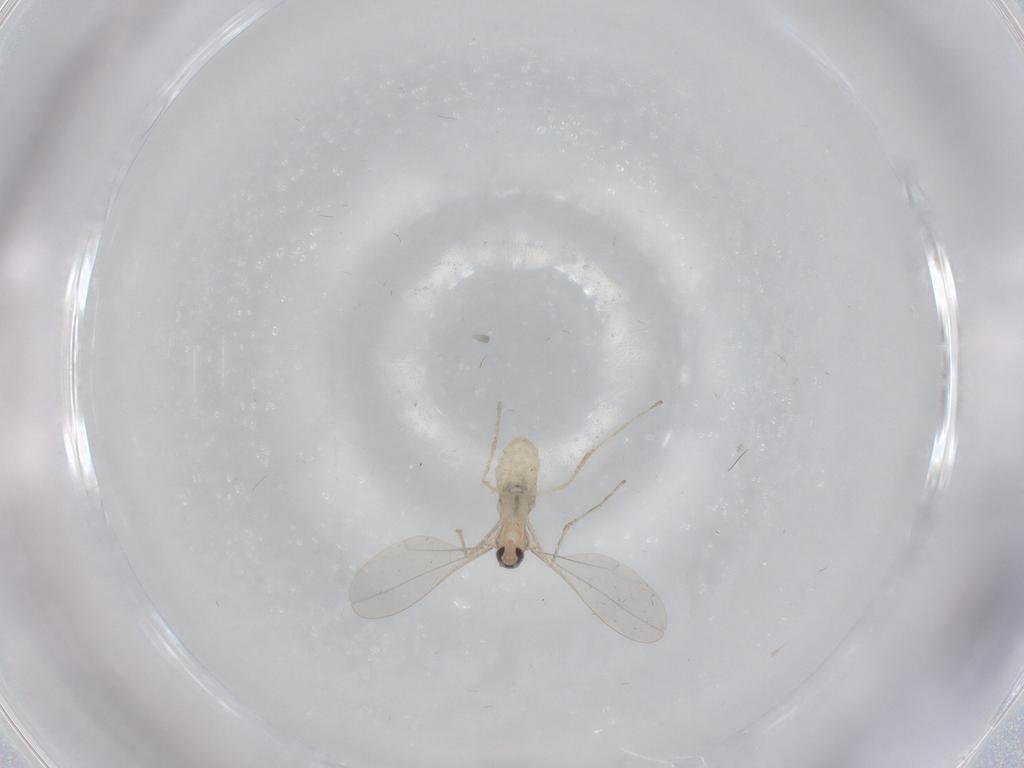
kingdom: Animalia
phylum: Arthropoda
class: Insecta
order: Diptera
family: Cecidomyiidae
